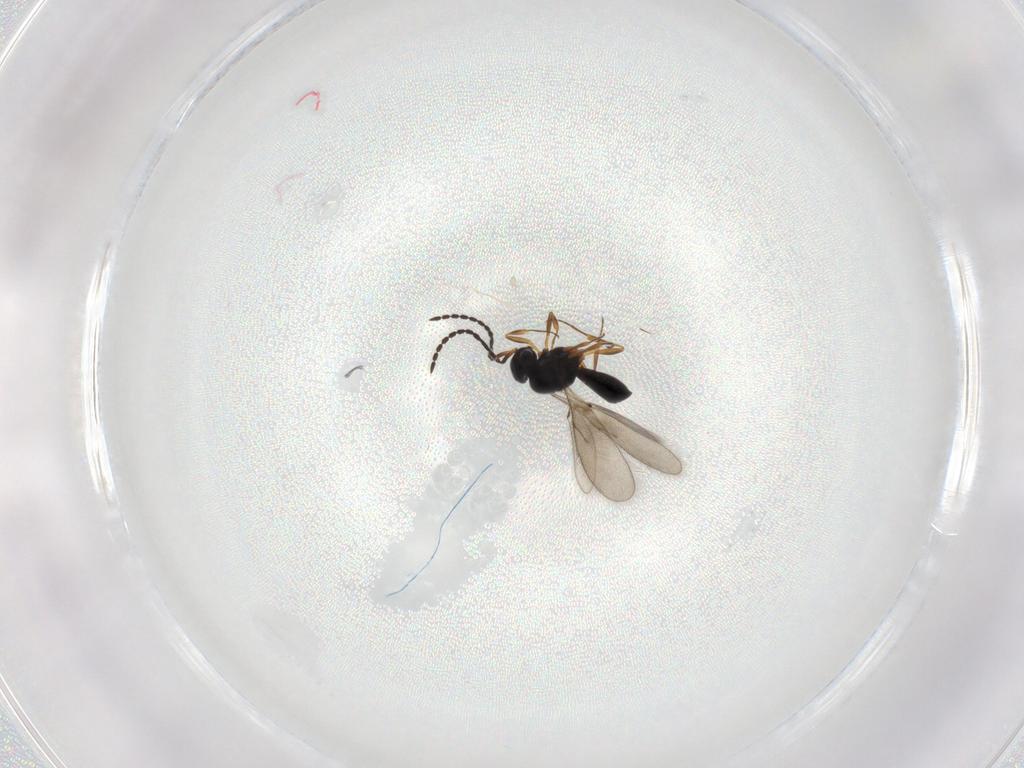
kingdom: Animalia
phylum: Arthropoda
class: Insecta
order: Hymenoptera
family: Scelionidae
